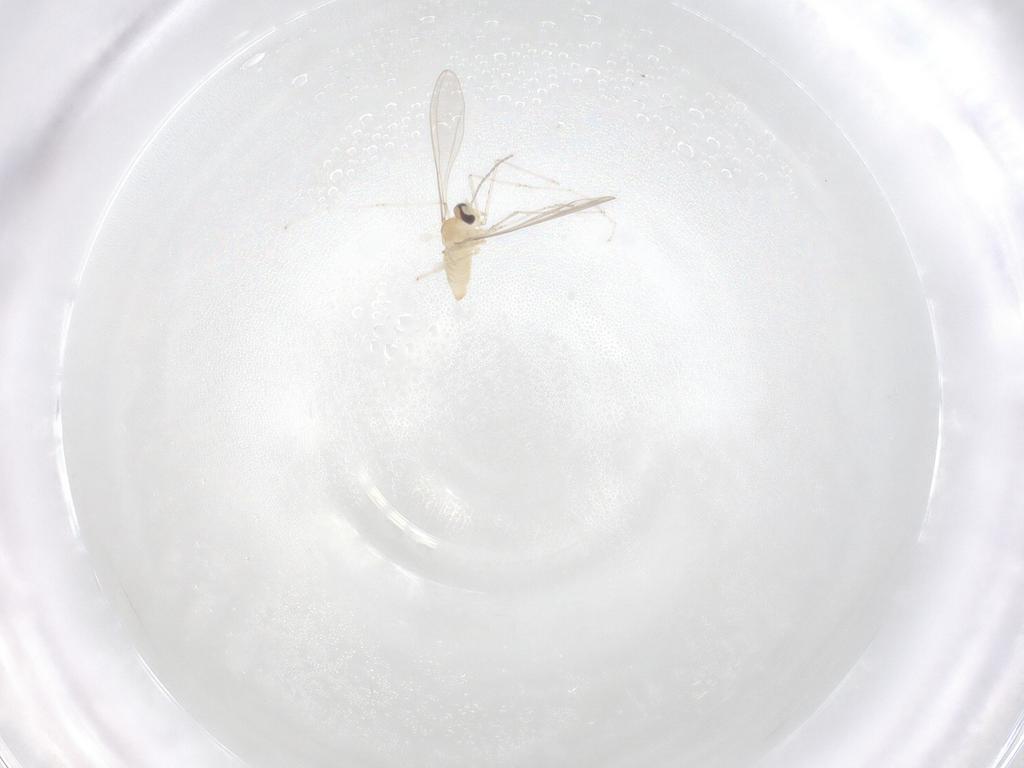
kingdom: Animalia
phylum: Arthropoda
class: Insecta
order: Diptera
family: Cecidomyiidae
